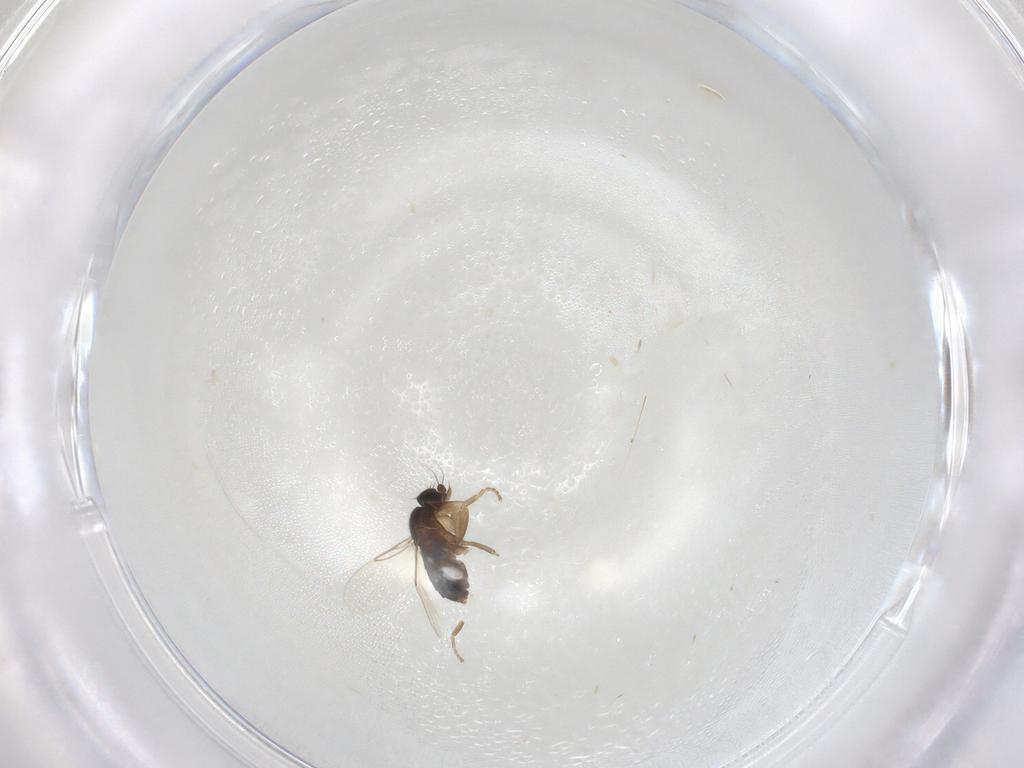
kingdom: Animalia
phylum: Arthropoda
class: Insecta
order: Diptera
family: Phoridae
